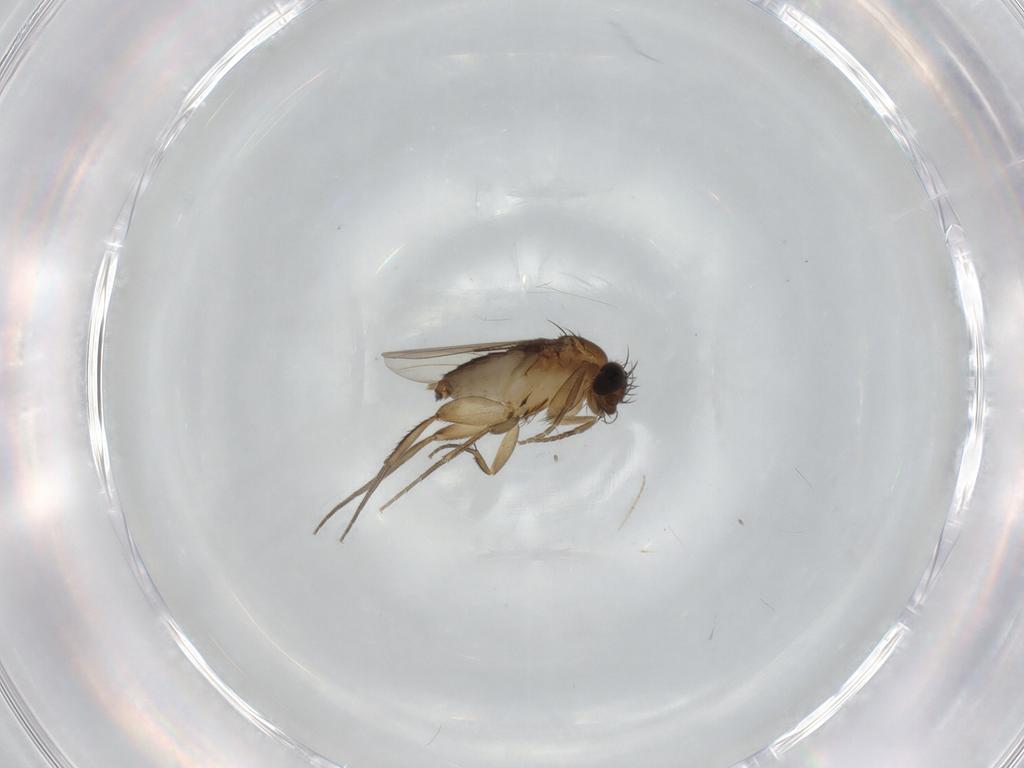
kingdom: Animalia
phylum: Arthropoda
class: Insecta
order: Diptera
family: Phoridae
